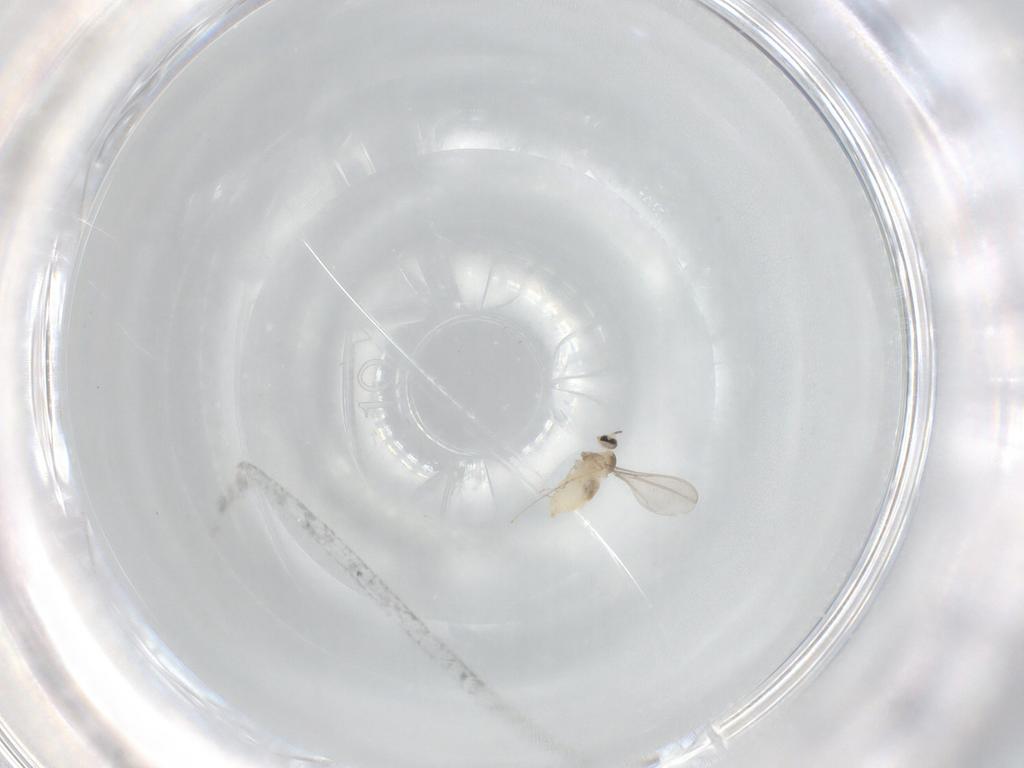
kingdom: Animalia
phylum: Arthropoda
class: Insecta
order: Diptera
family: Cecidomyiidae
